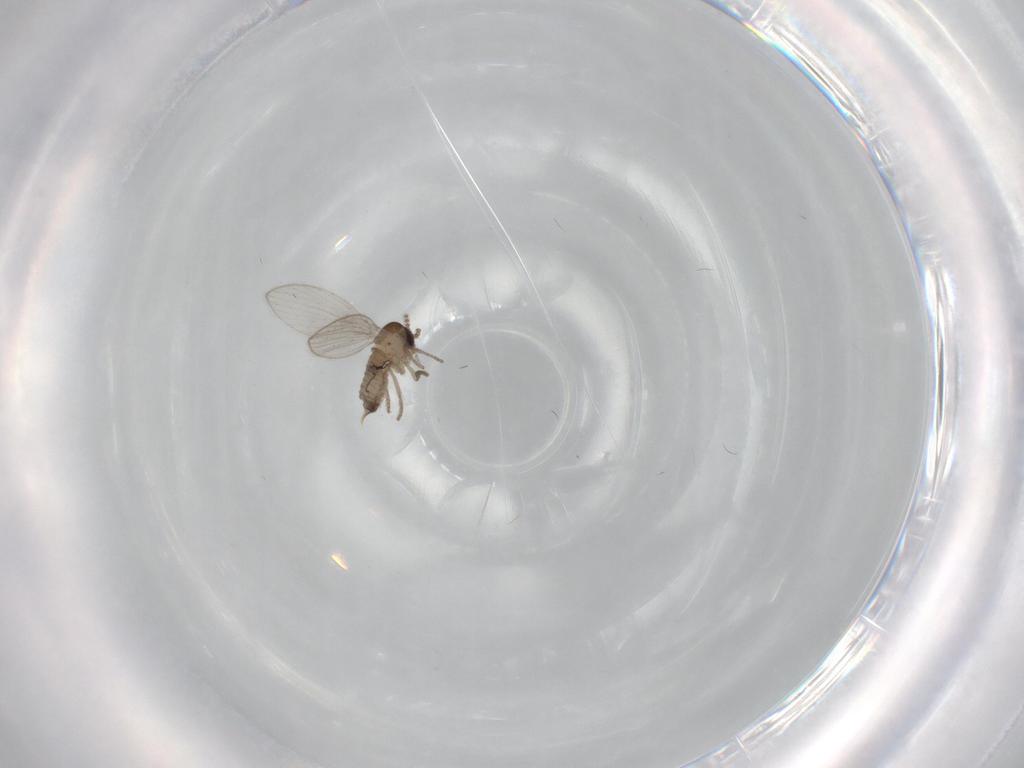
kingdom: Animalia
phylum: Arthropoda
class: Insecta
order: Diptera
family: Psychodidae
